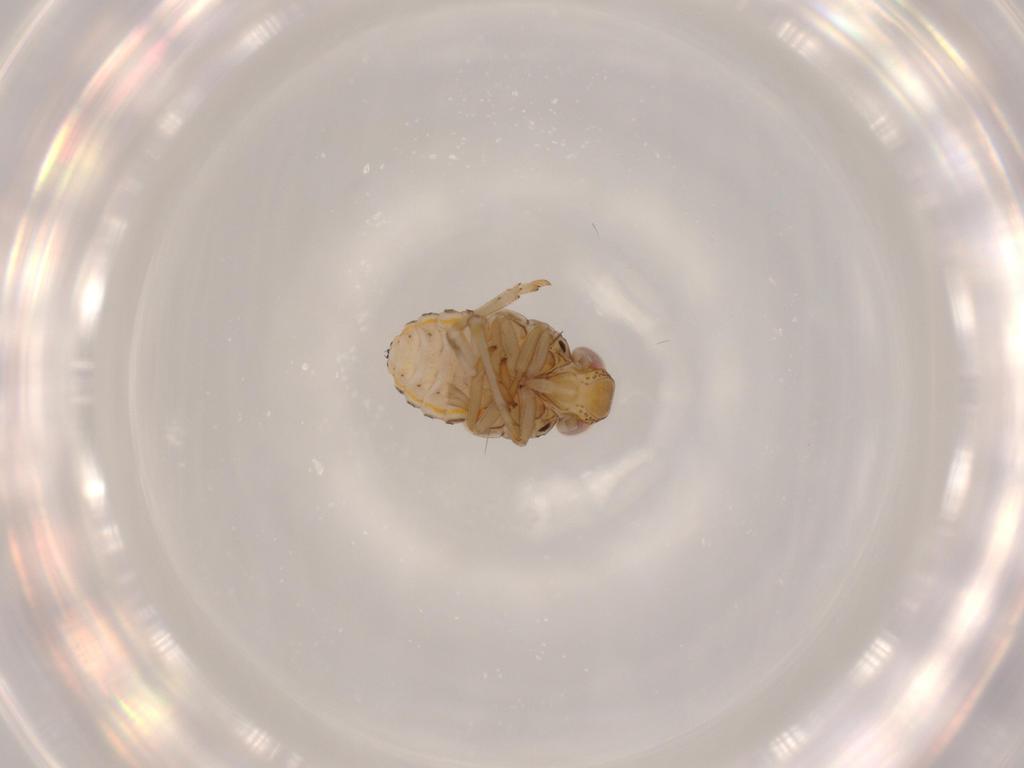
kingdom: Animalia
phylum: Arthropoda
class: Insecta
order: Hemiptera
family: Issidae
